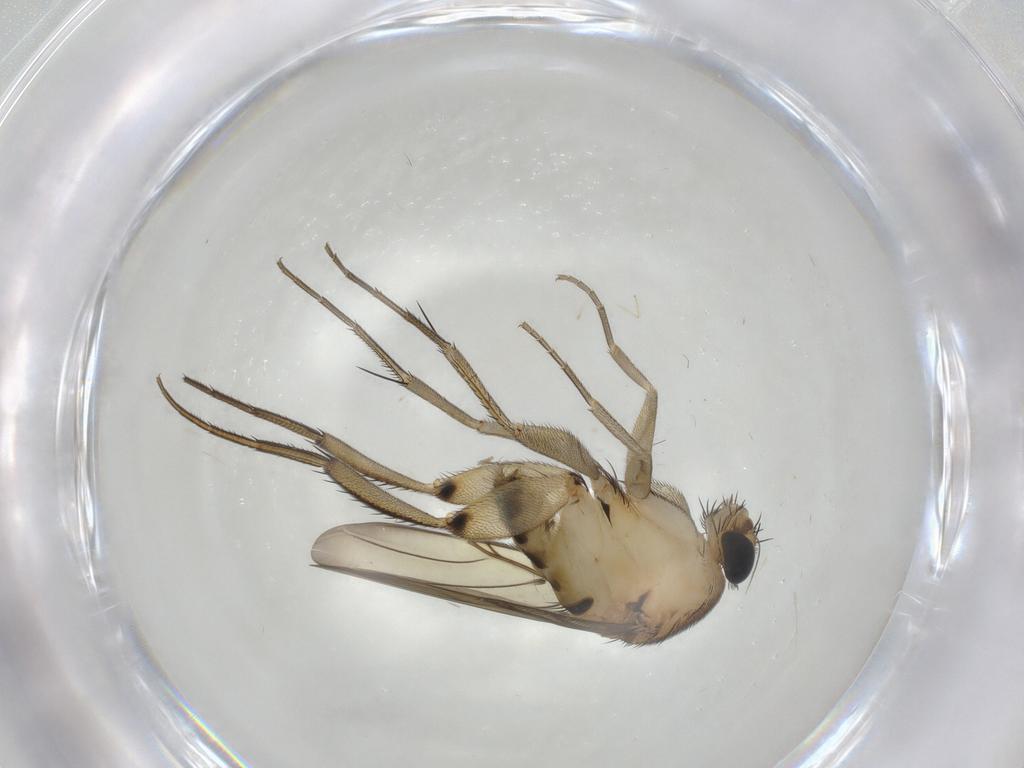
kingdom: Animalia
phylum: Arthropoda
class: Insecta
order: Diptera
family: Phoridae
